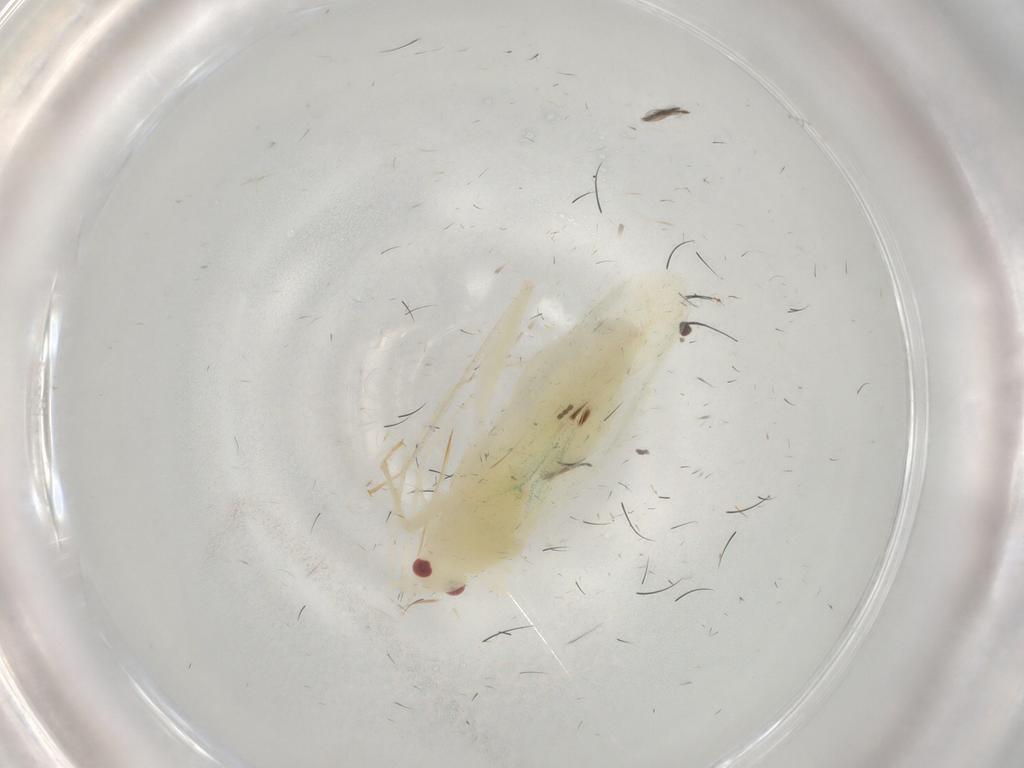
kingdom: Animalia
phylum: Arthropoda
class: Insecta
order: Hemiptera
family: Miridae
